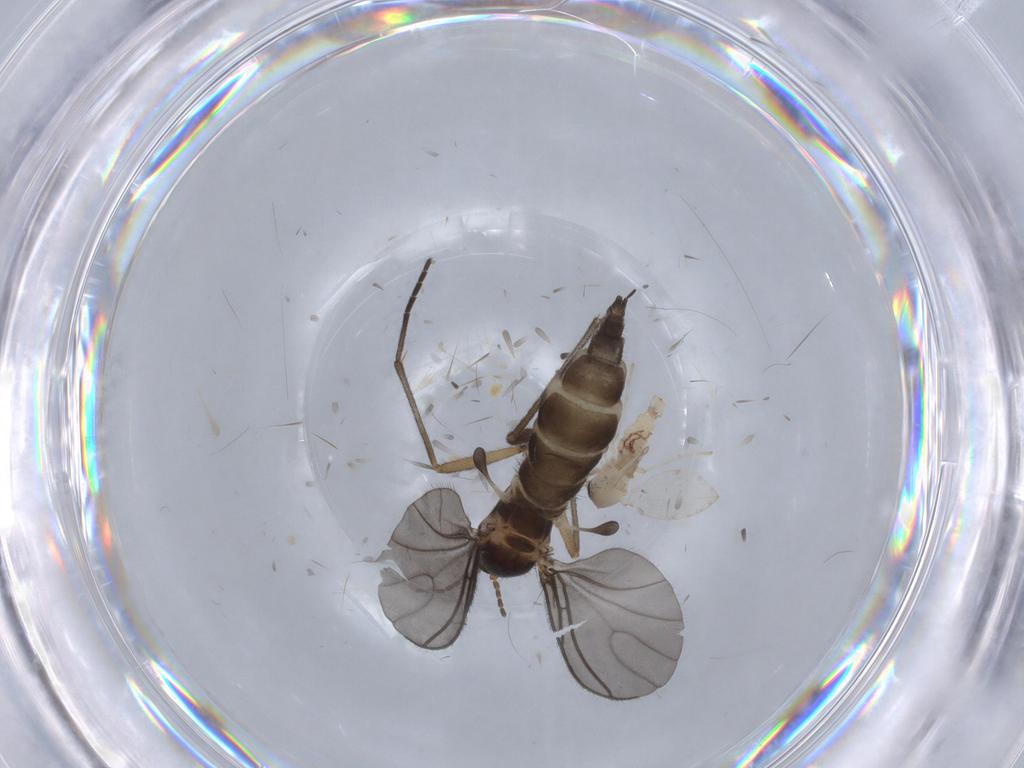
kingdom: Animalia
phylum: Arthropoda
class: Insecta
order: Diptera
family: Psychodidae
